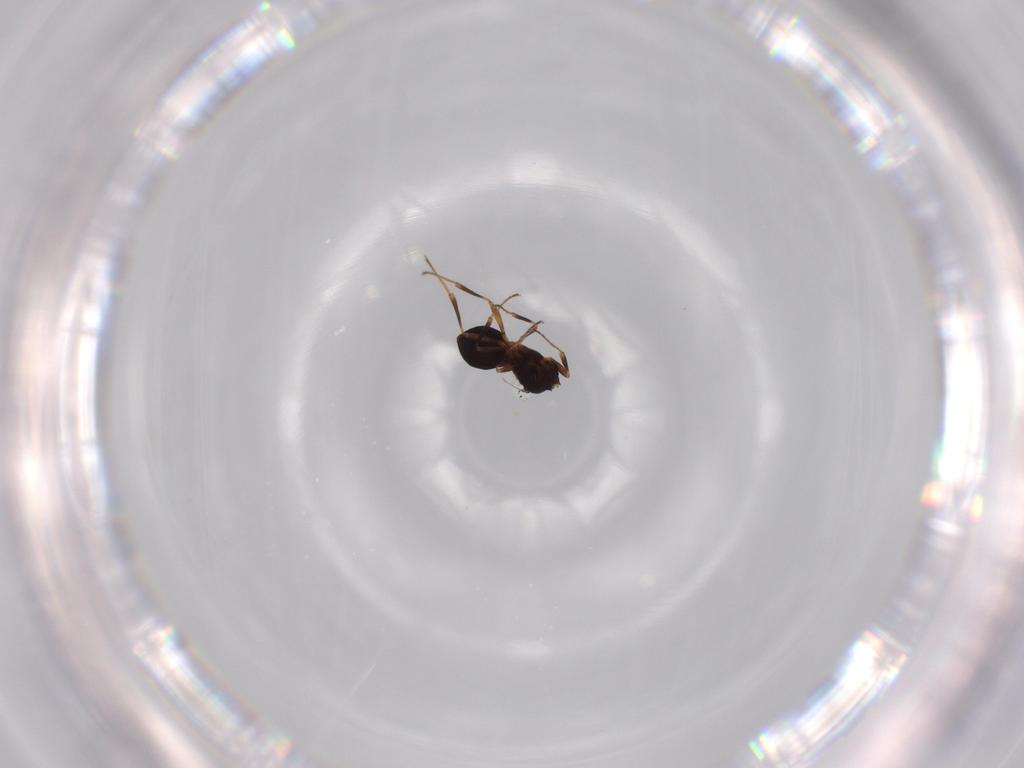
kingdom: Animalia
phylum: Arthropoda
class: Insecta
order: Hymenoptera
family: Scelionidae
